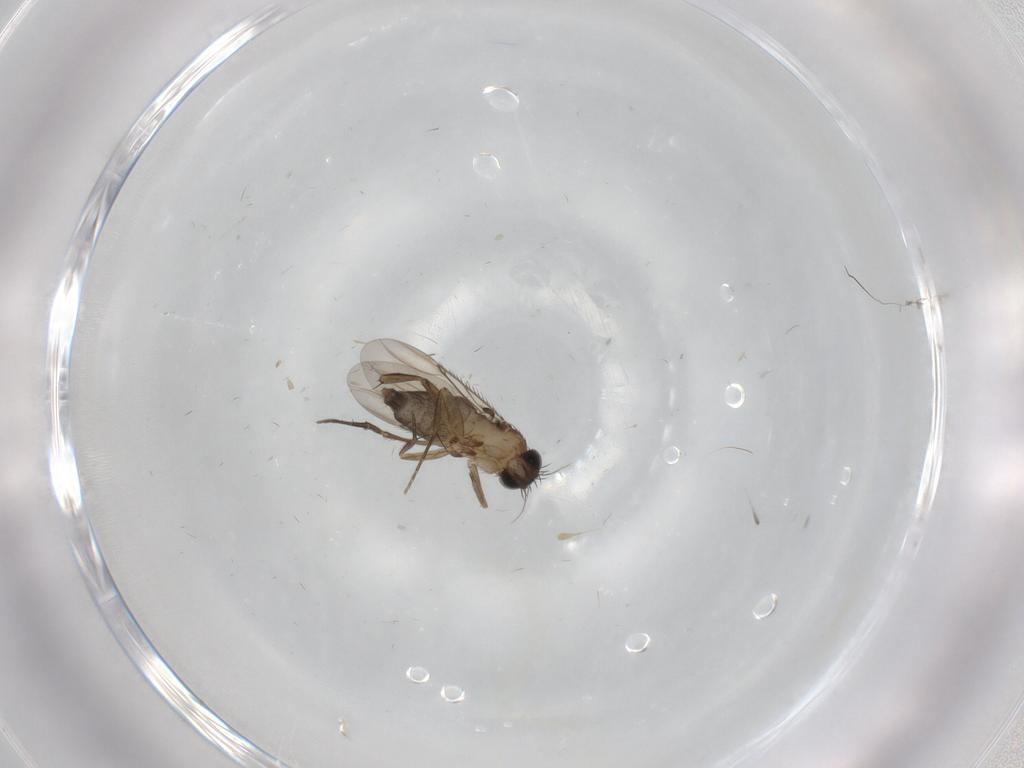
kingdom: Animalia
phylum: Arthropoda
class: Insecta
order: Diptera
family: Phoridae
